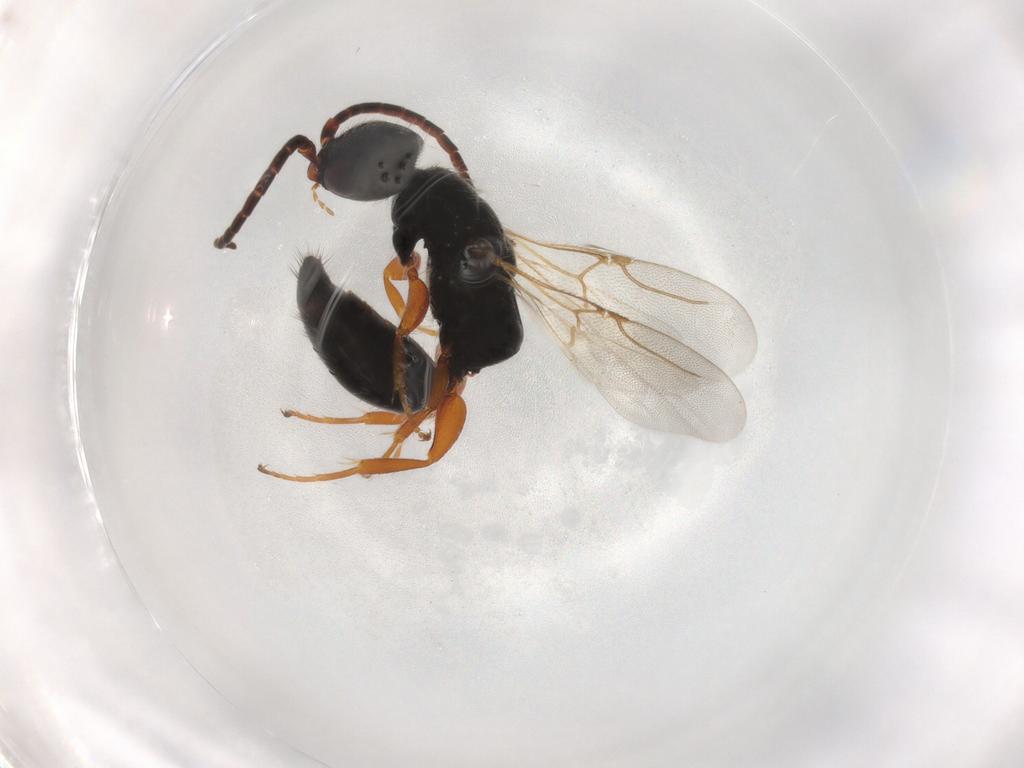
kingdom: Animalia
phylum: Arthropoda
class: Insecta
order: Hymenoptera
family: Bethylidae
